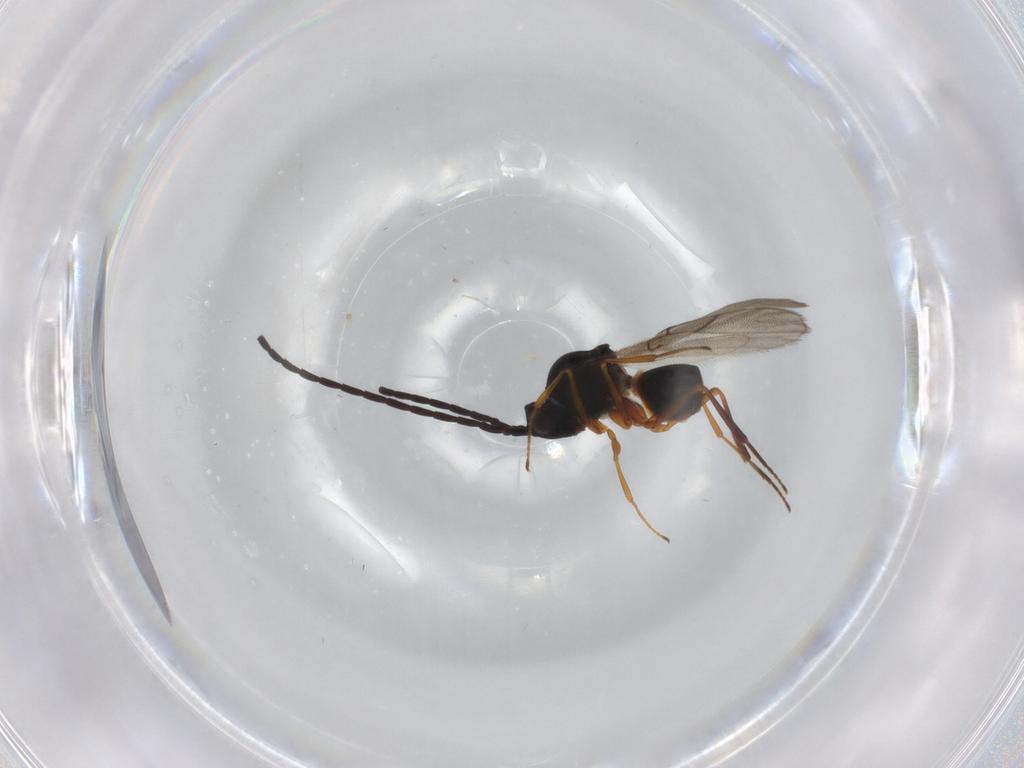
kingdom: Animalia
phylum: Arthropoda
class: Insecta
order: Hymenoptera
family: Figitidae
